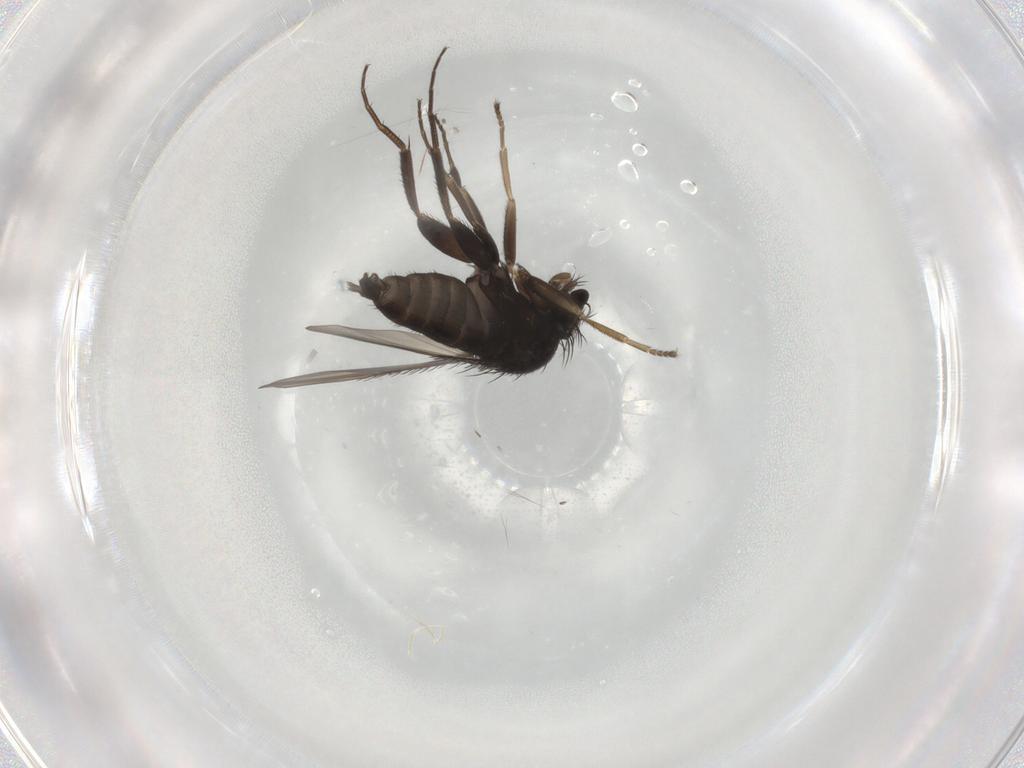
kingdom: Animalia
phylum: Arthropoda
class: Insecta
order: Diptera
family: Phoridae
